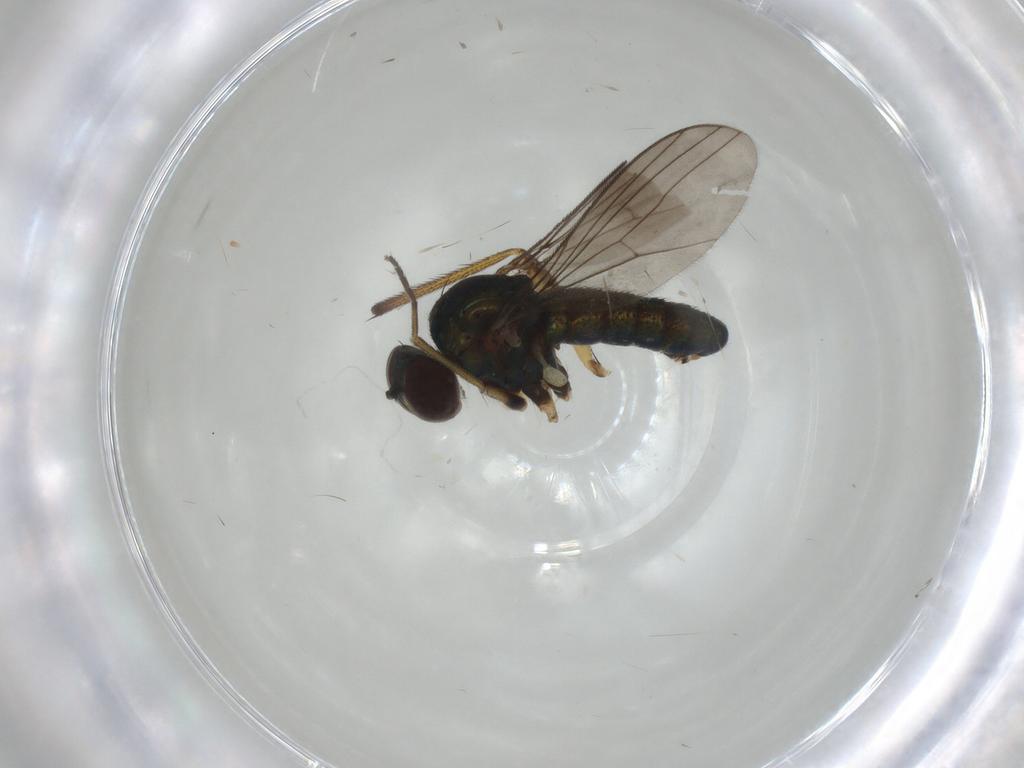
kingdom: Animalia
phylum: Arthropoda
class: Insecta
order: Diptera
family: Dolichopodidae
